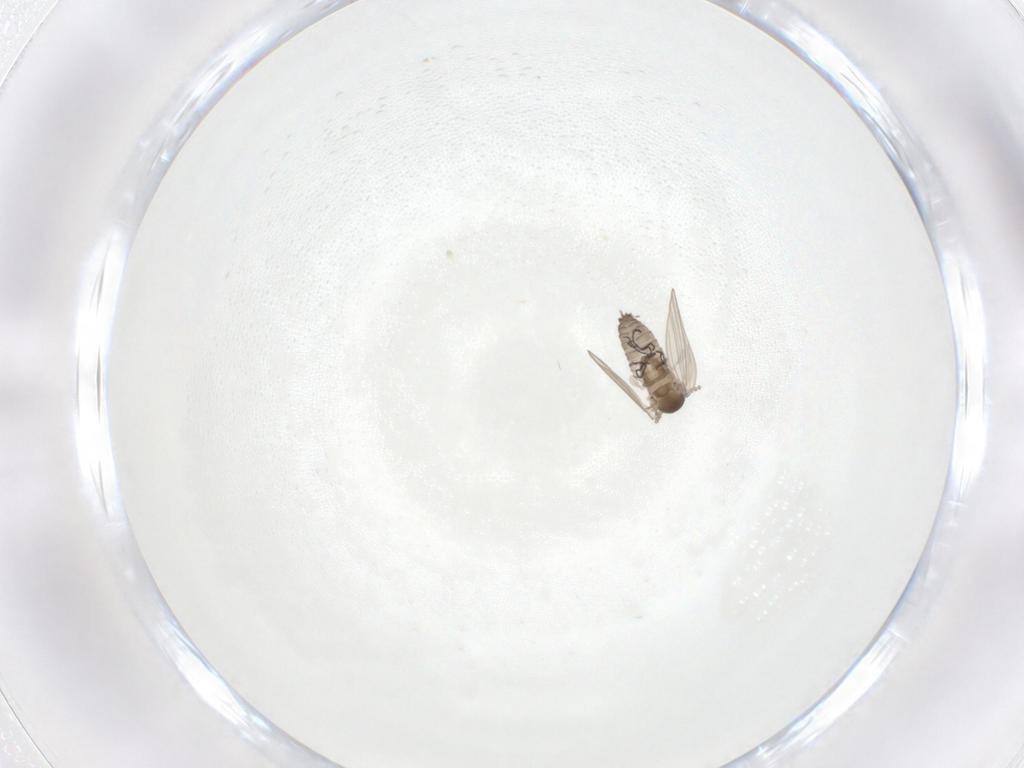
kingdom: Animalia
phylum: Arthropoda
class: Insecta
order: Diptera
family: Psychodidae
